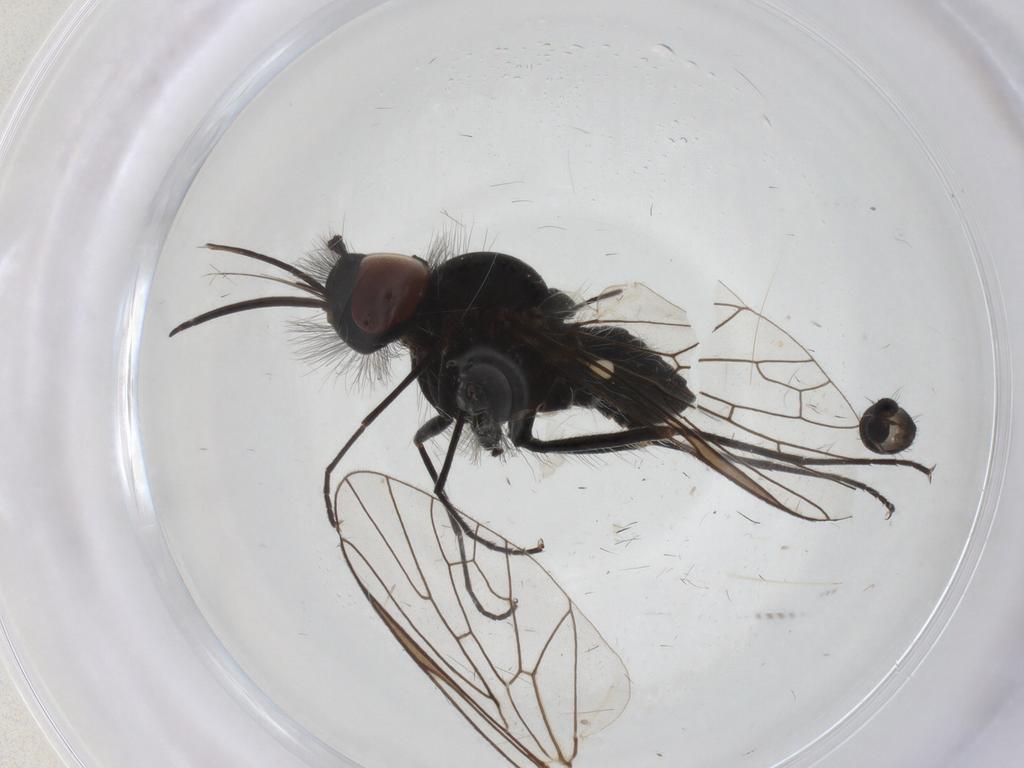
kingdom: Animalia
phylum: Arthropoda
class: Insecta
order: Diptera
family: Bombyliidae
